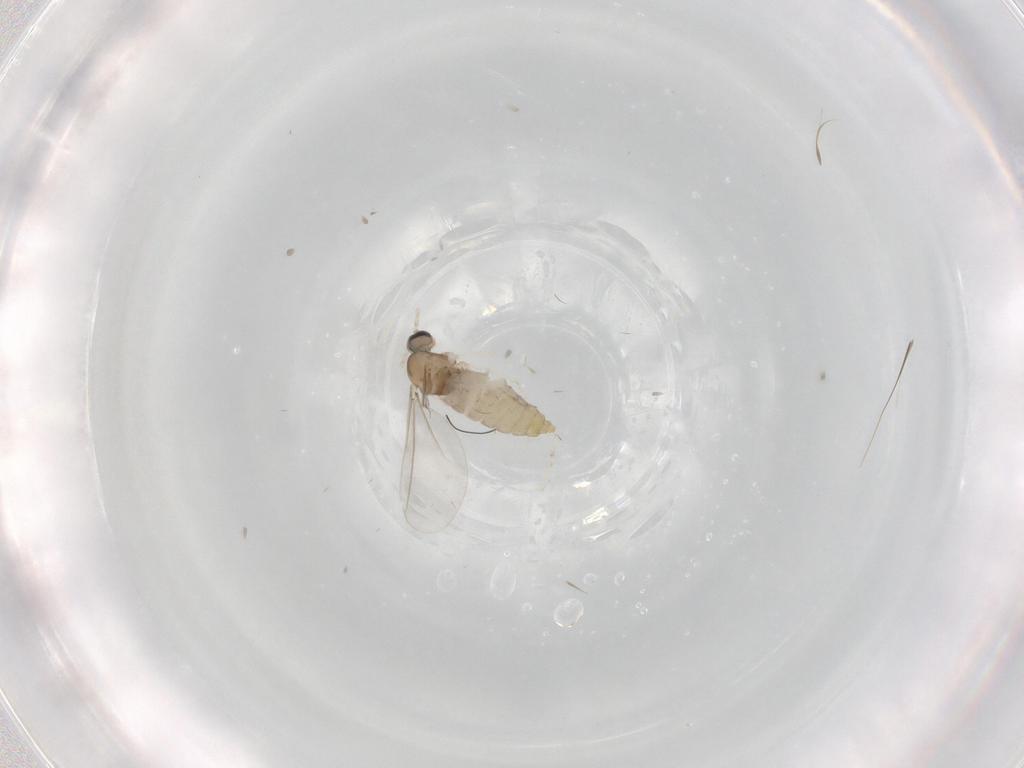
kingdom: Animalia
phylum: Arthropoda
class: Insecta
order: Diptera
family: Cecidomyiidae
